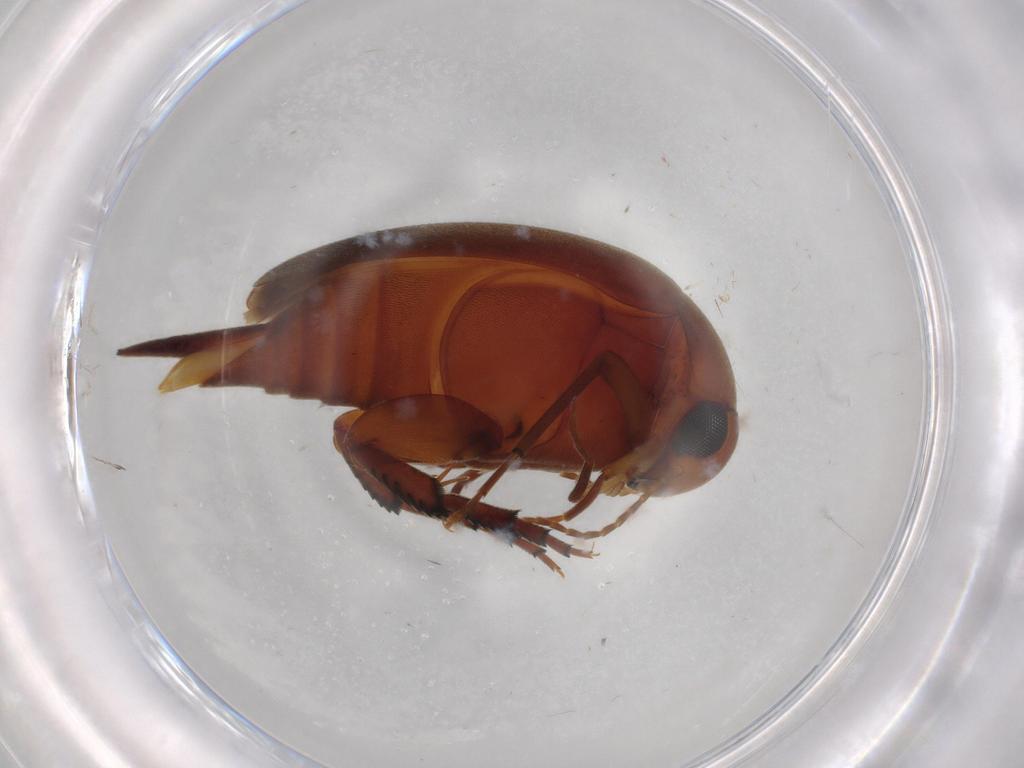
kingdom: Animalia
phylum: Arthropoda
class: Insecta
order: Coleoptera
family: Mordellidae
